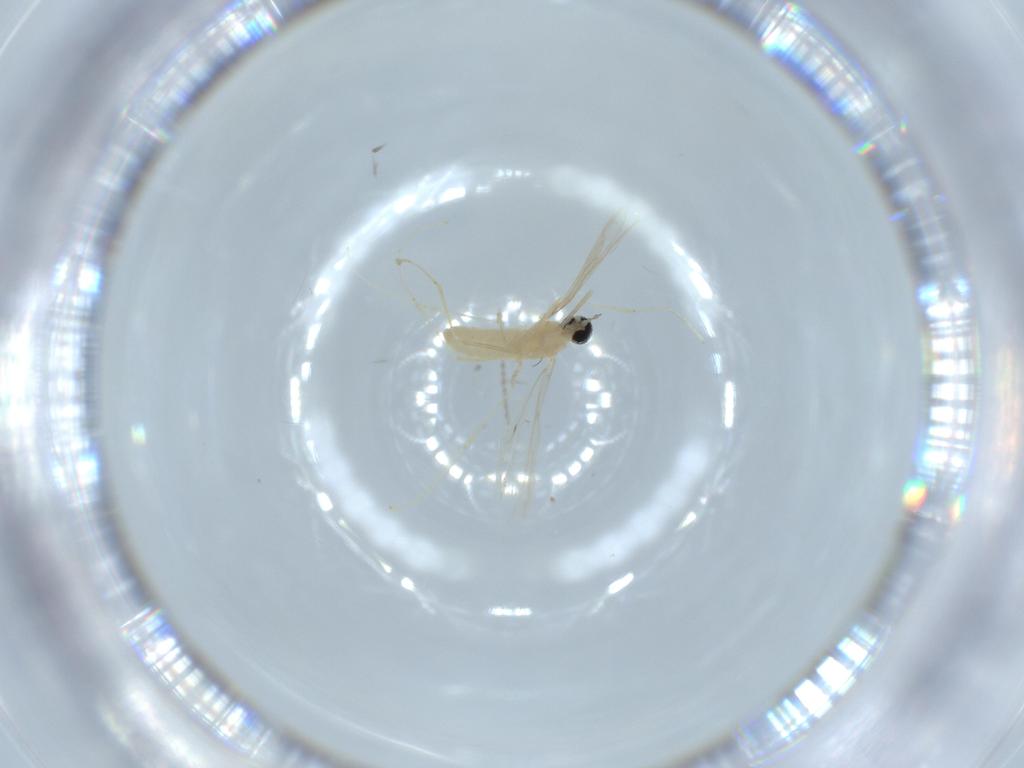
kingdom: Animalia
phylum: Arthropoda
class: Insecta
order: Diptera
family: Cecidomyiidae
